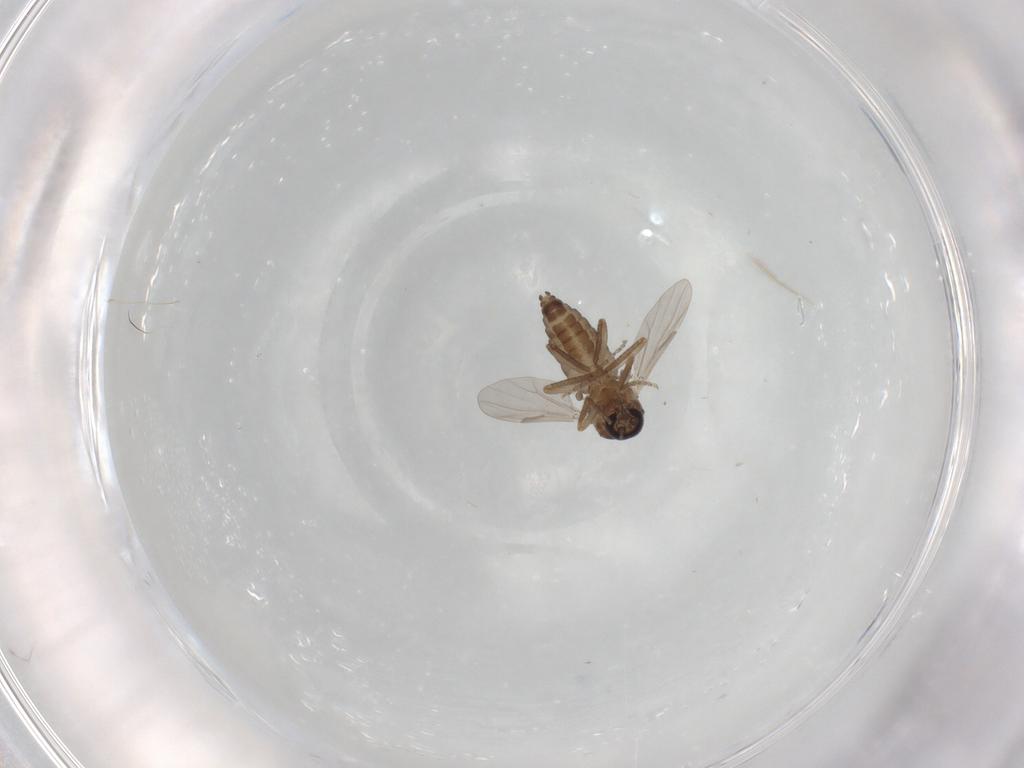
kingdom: Animalia
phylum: Arthropoda
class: Insecta
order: Diptera
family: Ceratopogonidae
